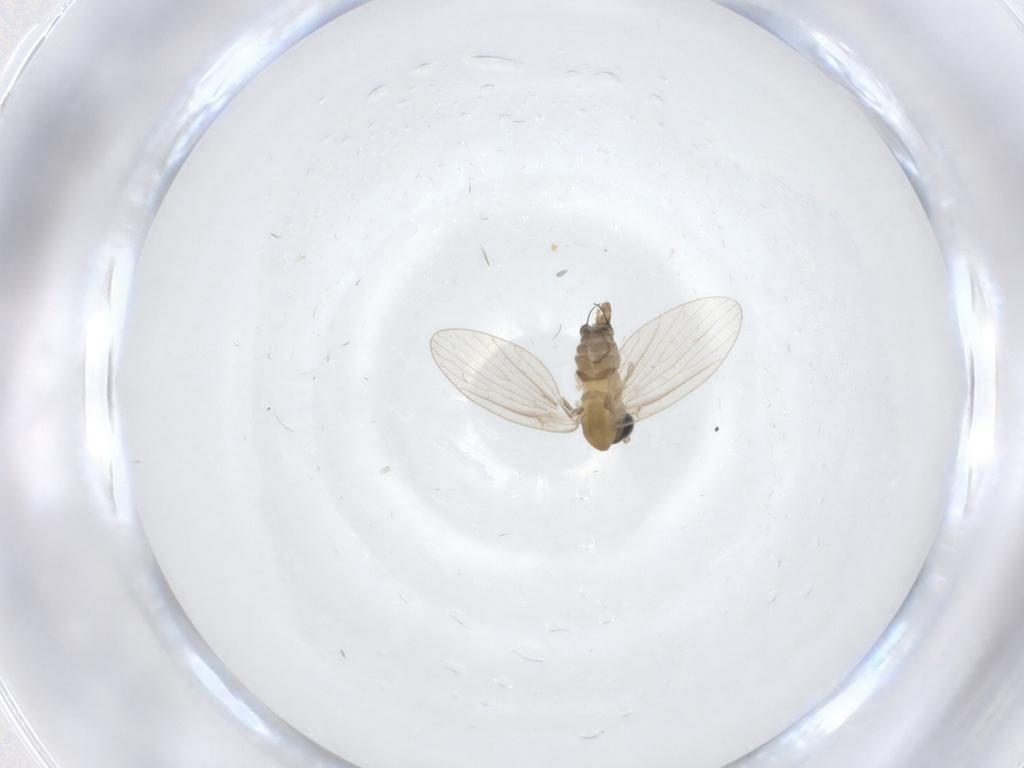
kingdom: Animalia
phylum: Arthropoda
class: Insecta
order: Diptera
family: Psychodidae
